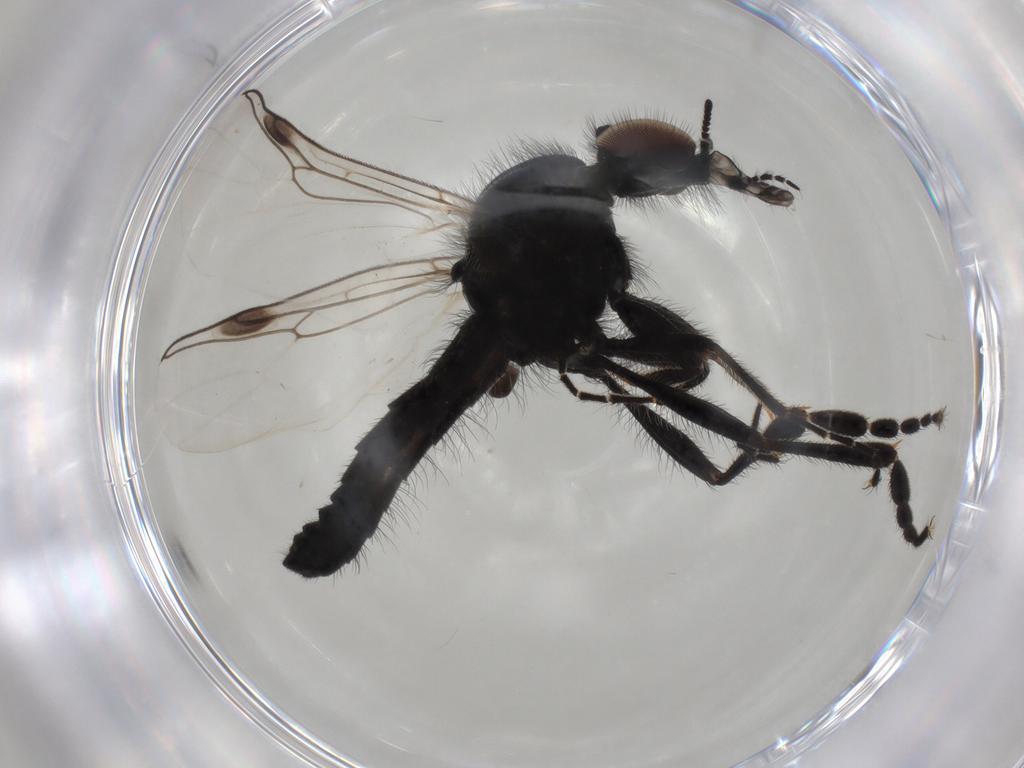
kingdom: Animalia
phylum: Arthropoda
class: Insecta
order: Diptera
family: Bibionidae
